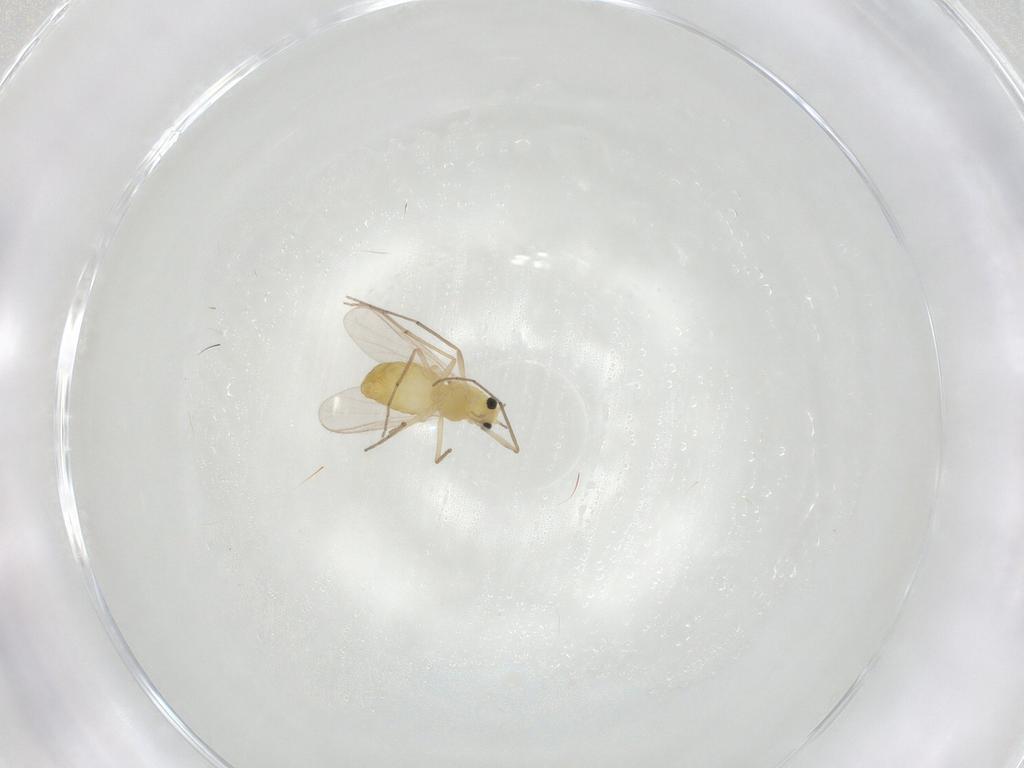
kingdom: Animalia
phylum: Arthropoda
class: Insecta
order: Diptera
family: Chironomidae
